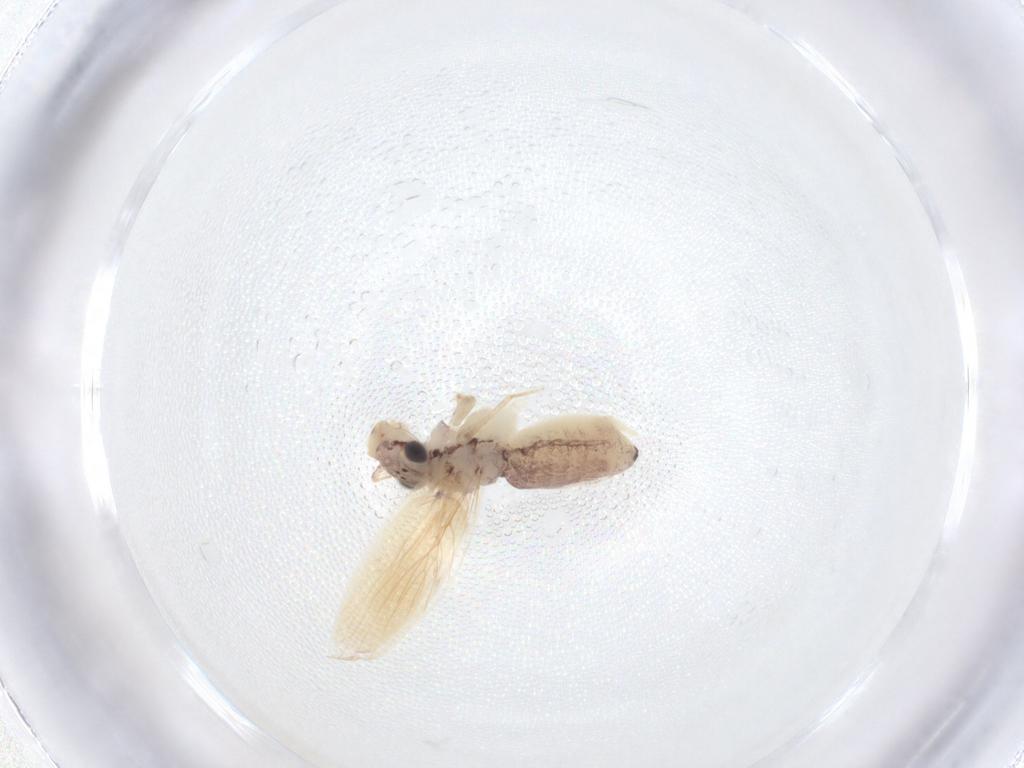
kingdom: Animalia
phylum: Arthropoda
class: Insecta
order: Psocodea
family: Lepidopsocidae
